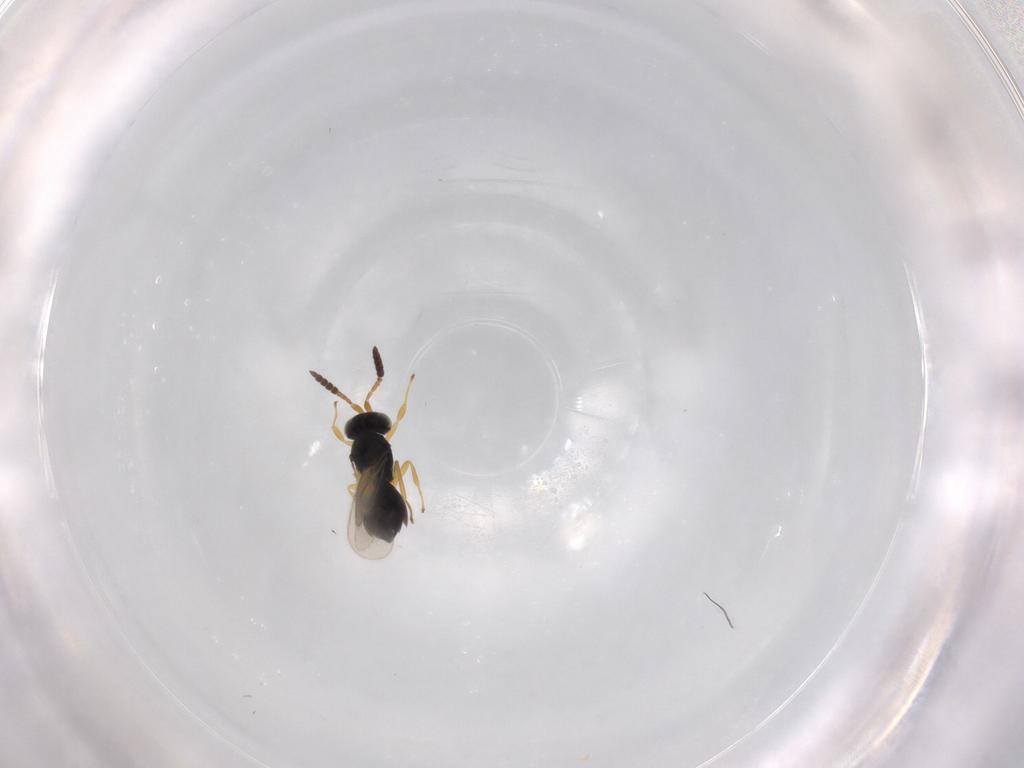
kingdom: Animalia
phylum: Arthropoda
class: Insecta
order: Hymenoptera
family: Scelionidae
